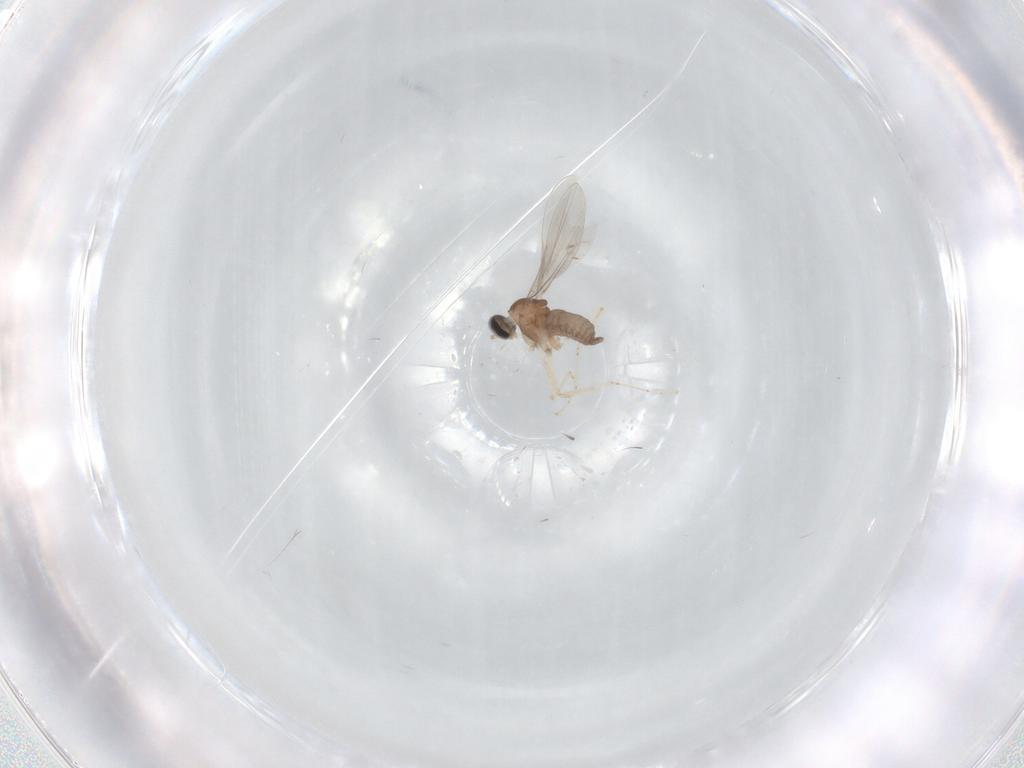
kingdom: Animalia
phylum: Arthropoda
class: Insecta
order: Diptera
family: Cecidomyiidae
